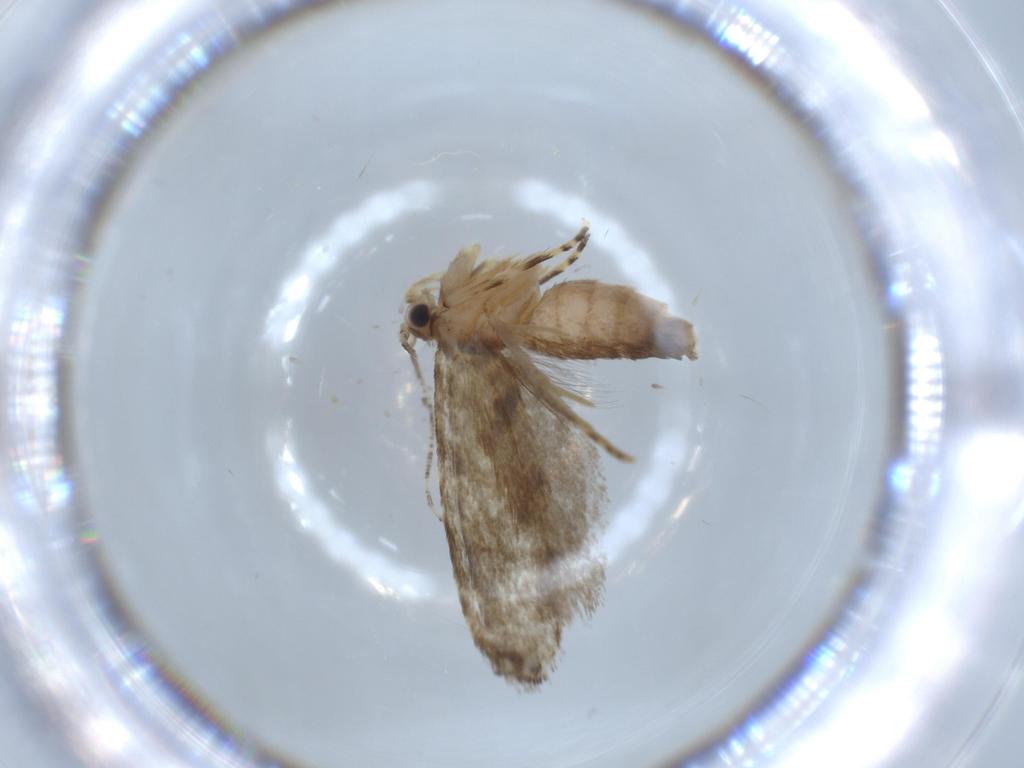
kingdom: Animalia
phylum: Arthropoda
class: Insecta
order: Lepidoptera
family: Tineidae
